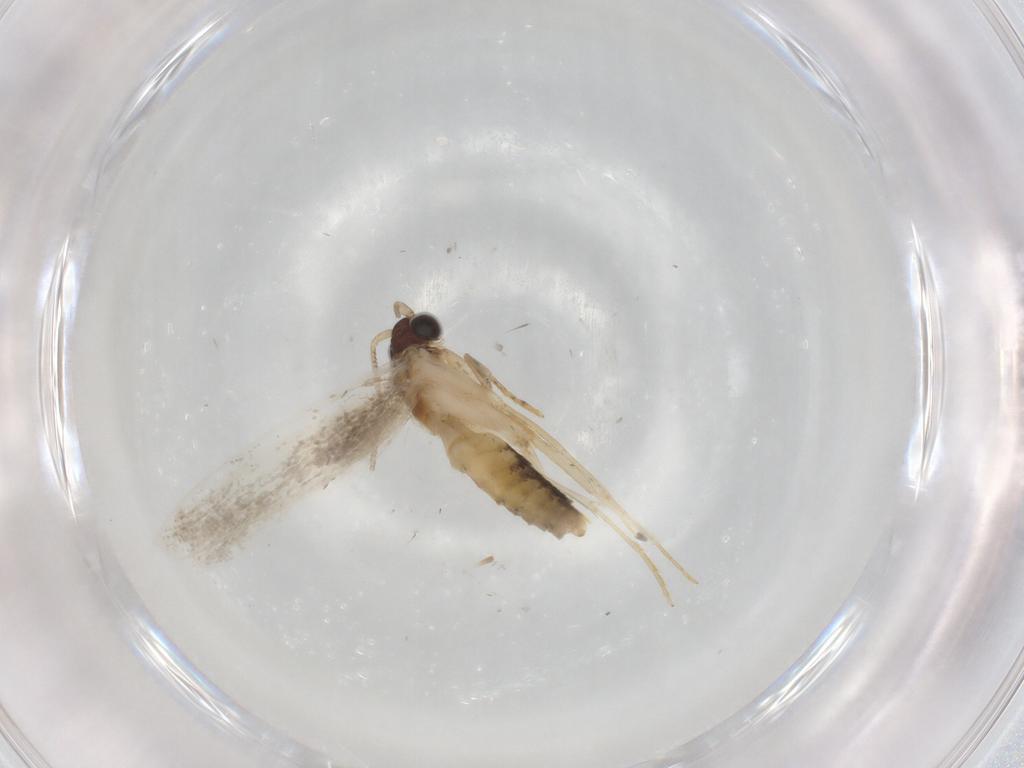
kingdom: Animalia
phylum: Arthropoda
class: Insecta
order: Lepidoptera
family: Tineidae
